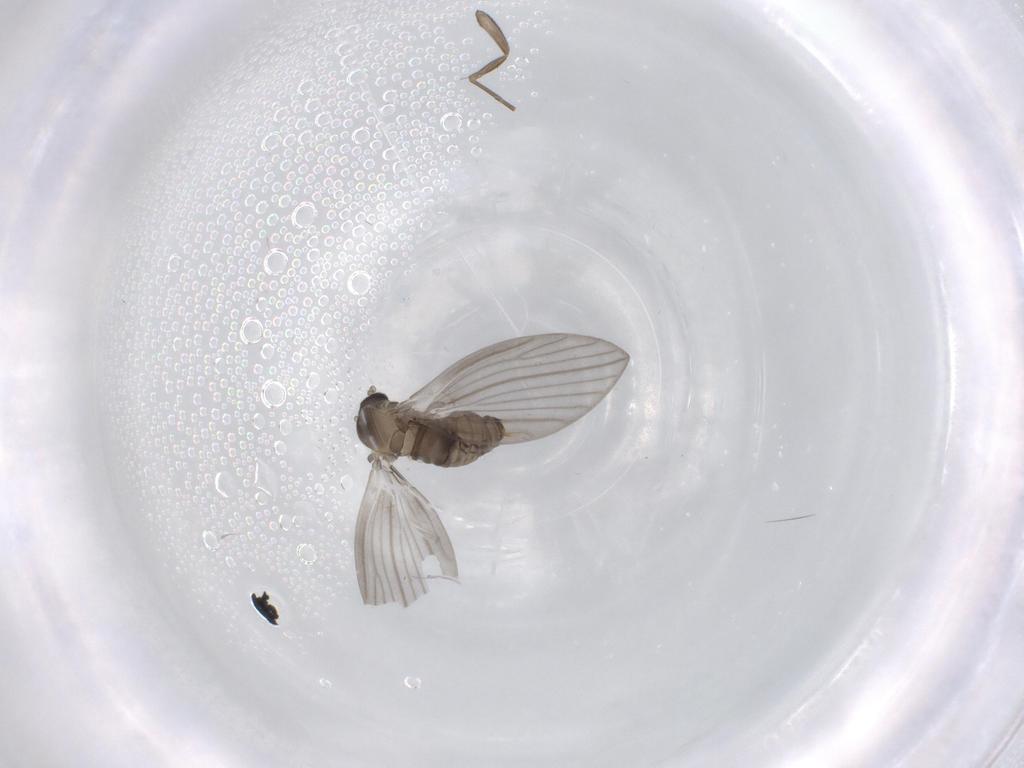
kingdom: Animalia
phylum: Arthropoda
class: Insecta
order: Diptera
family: Psychodidae
